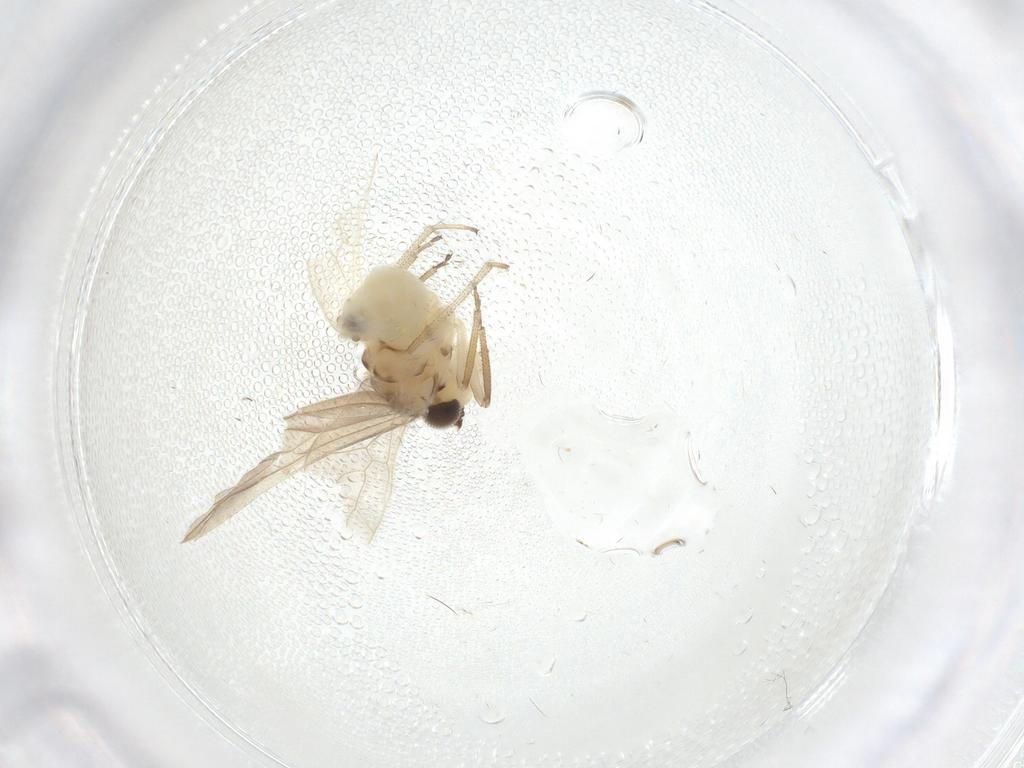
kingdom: Animalia
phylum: Arthropoda
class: Insecta
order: Psocodea
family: Caeciliusidae
